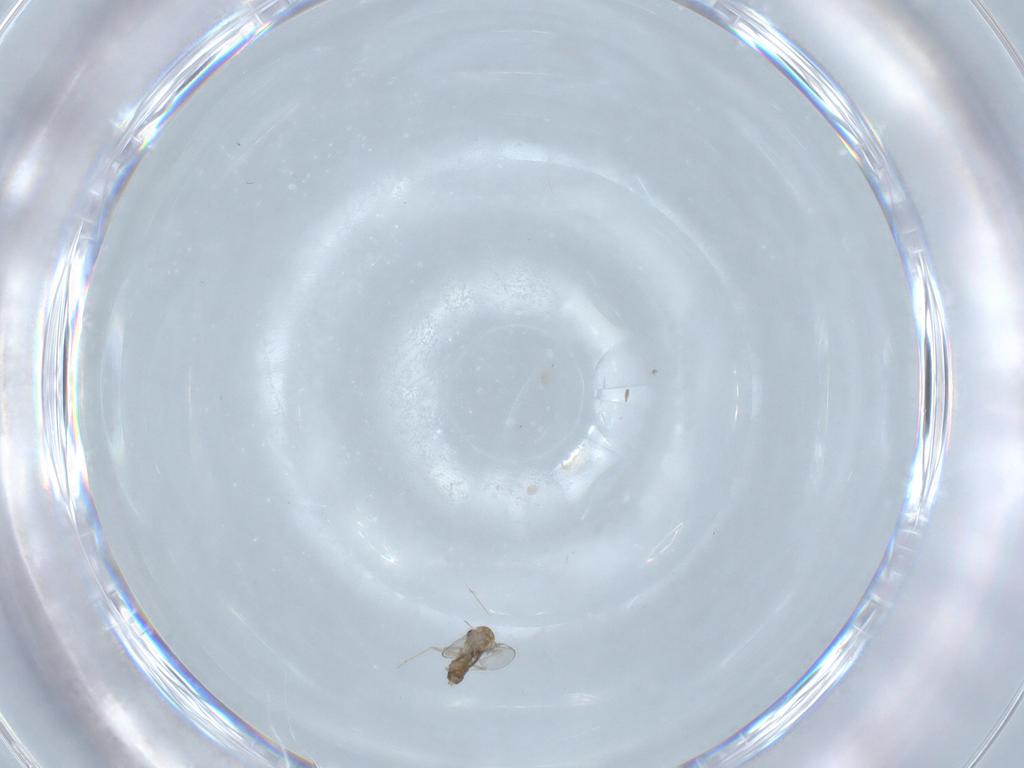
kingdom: Animalia
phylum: Arthropoda
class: Insecta
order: Diptera
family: Chironomidae
